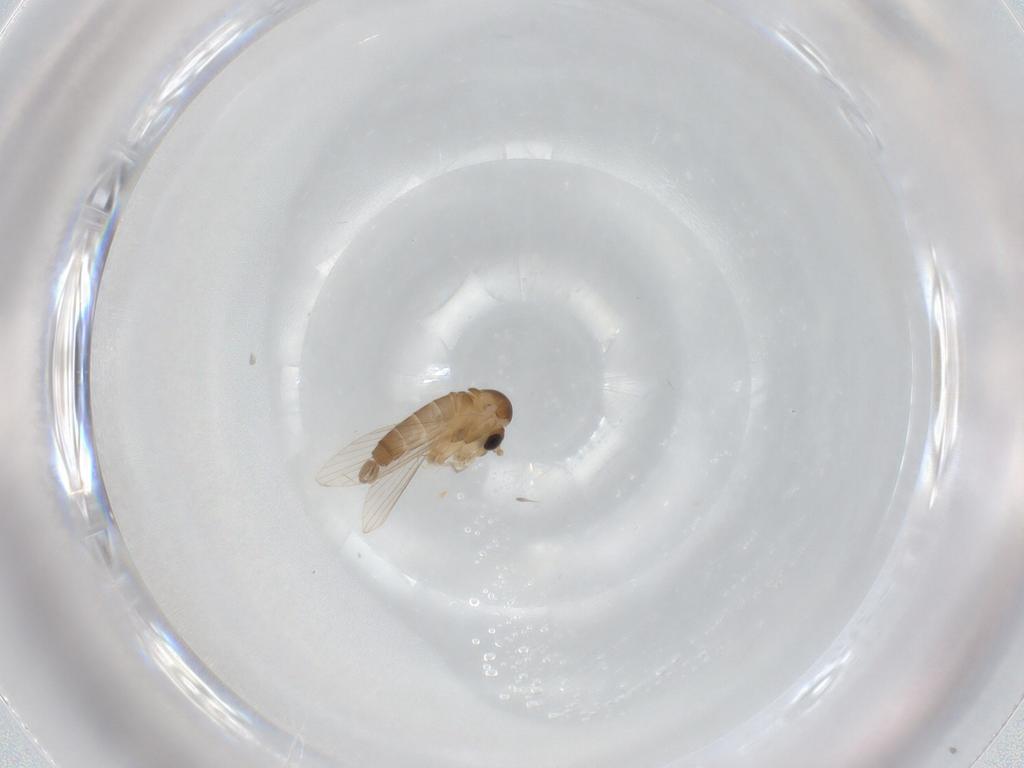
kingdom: Animalia
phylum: Arthropoda
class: Insecta
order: Diptera
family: Psychodidae
